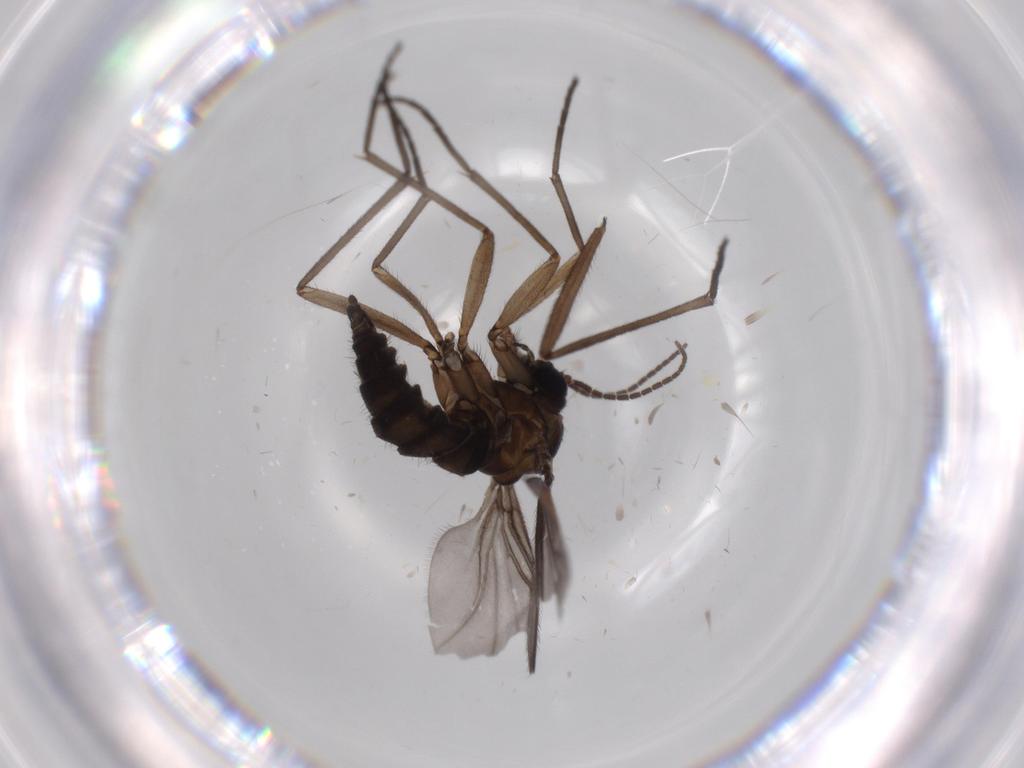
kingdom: Animalia
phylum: Arthropoda
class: Insecta
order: Diptera
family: Sciaridae
